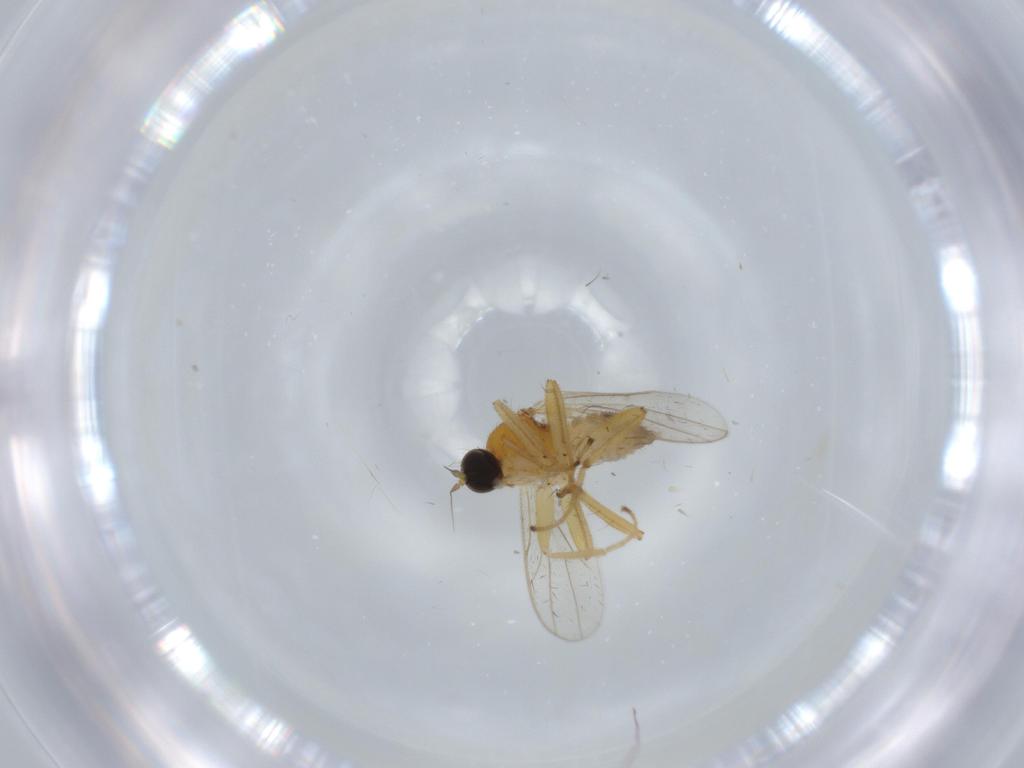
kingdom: Animalia
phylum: Arthropoda
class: Insecta
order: Diptera
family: Hybotidae
